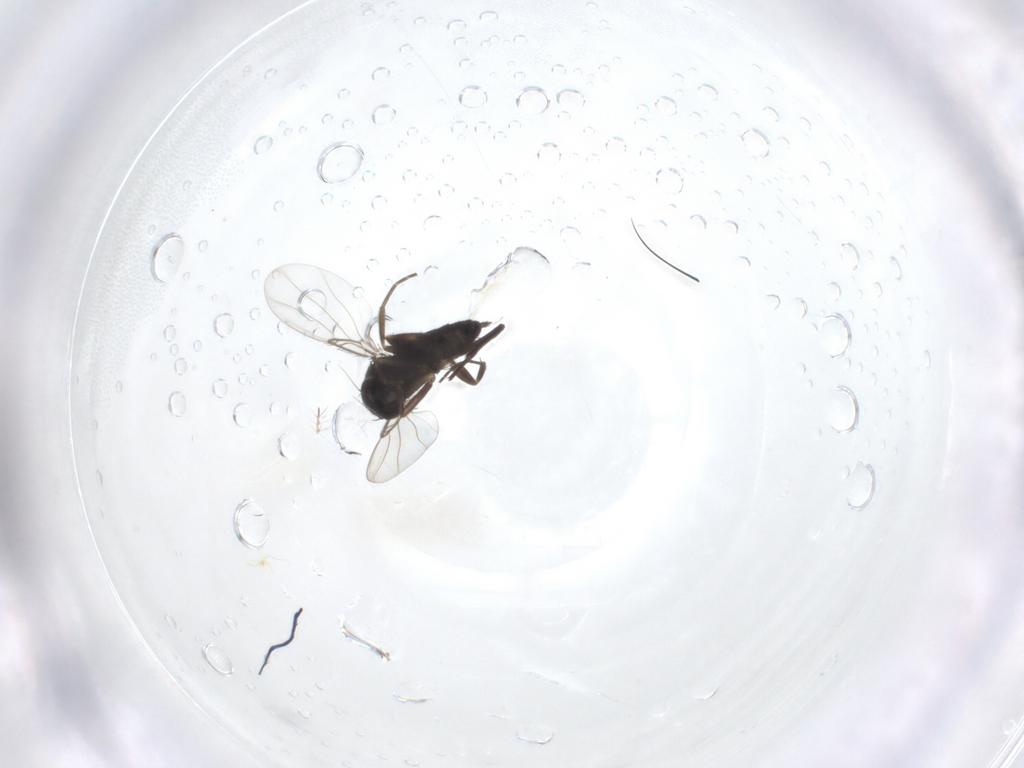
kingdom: Animalia
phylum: Arthropoda
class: Insecta
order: Diptera
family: Phoridae
